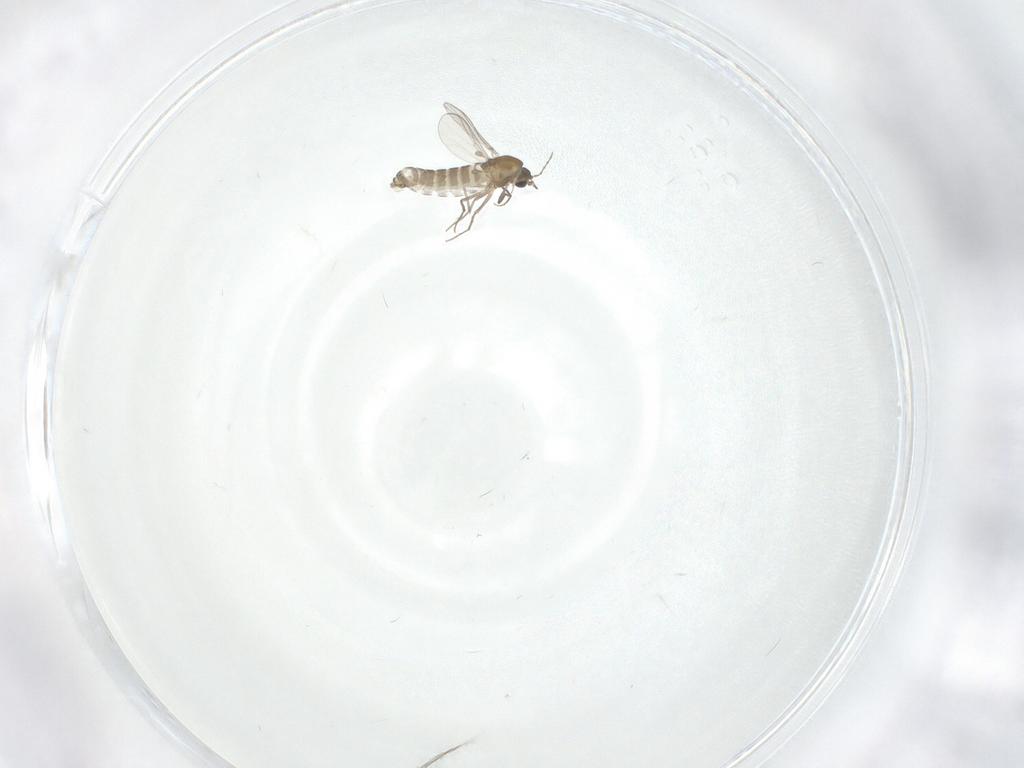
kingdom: Animalia
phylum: Arthropoda
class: Insecta
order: Diptera
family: Chironomidae
